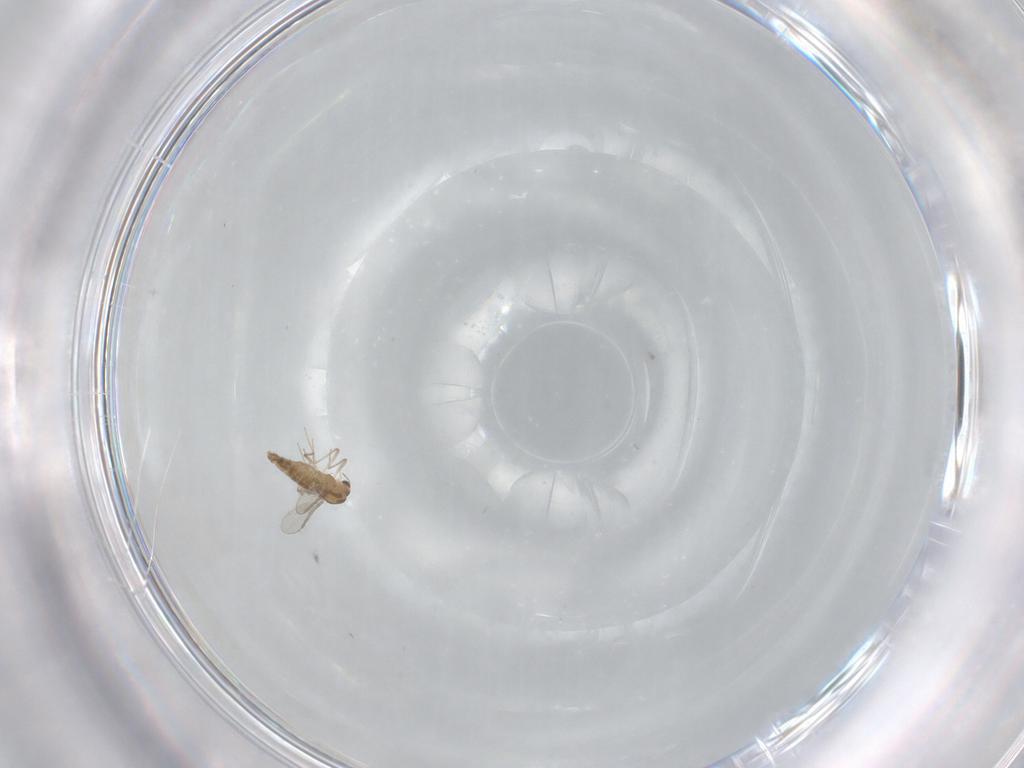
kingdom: Animalia
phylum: Arthropoda
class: Insecta
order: Diptera
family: Chironomidae
